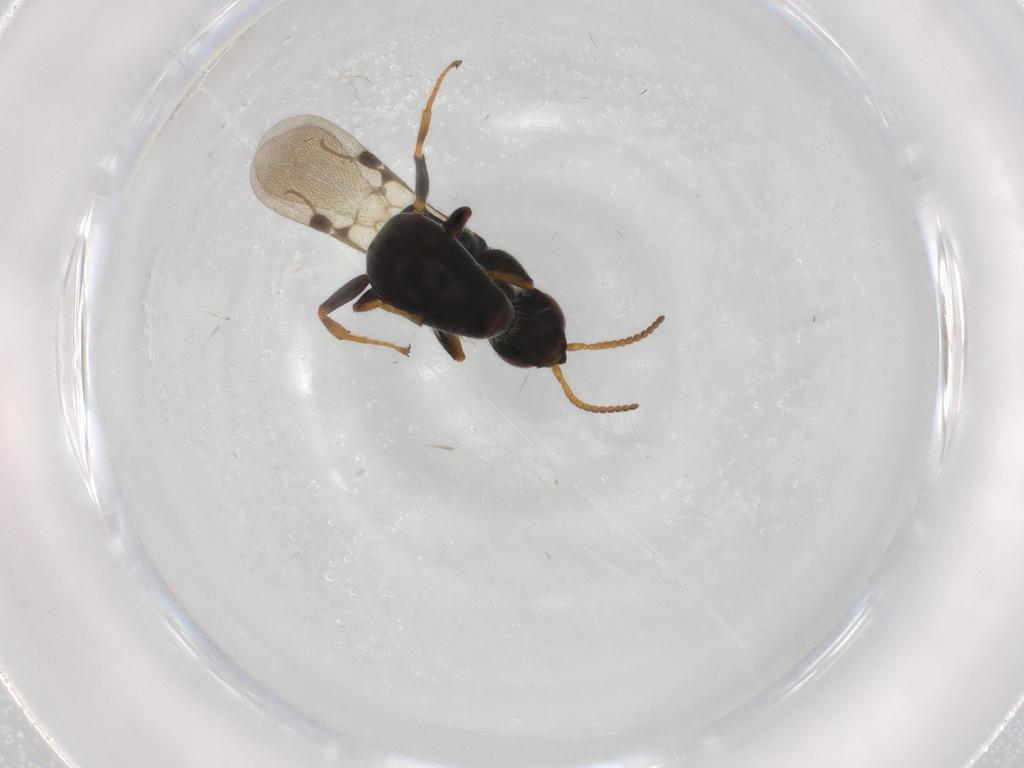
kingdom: Animalia
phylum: Arthropoda
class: Insecta
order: Hymenoptera
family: Bethylidae
